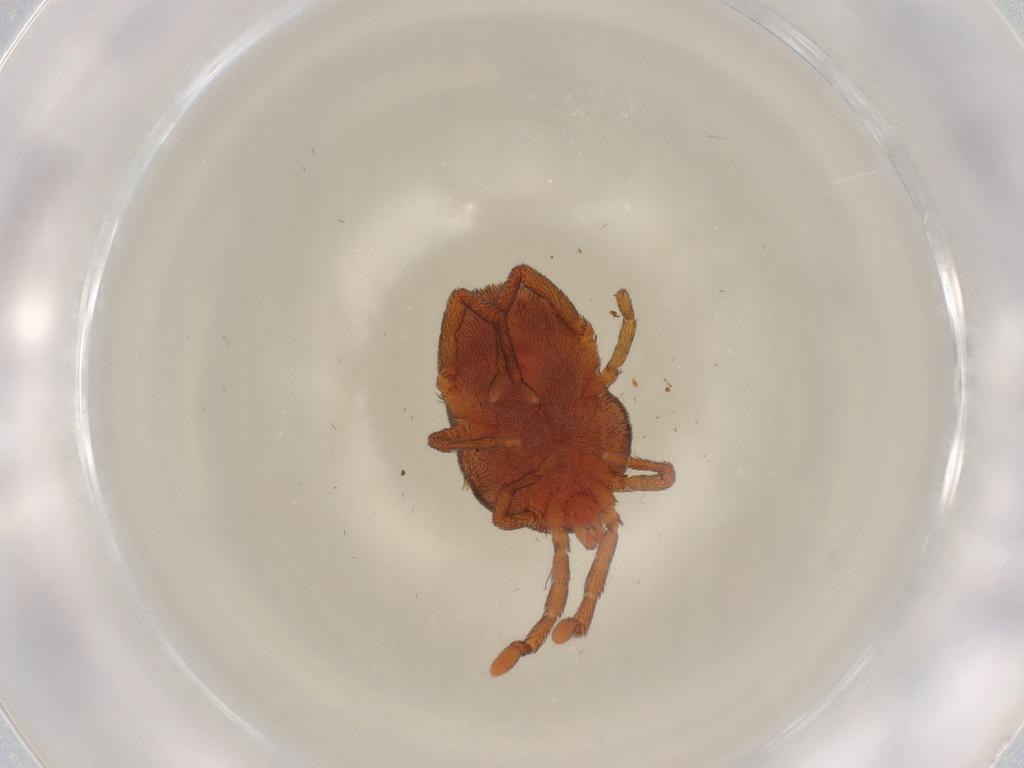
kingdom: Animalia
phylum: Arthropoda
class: Arachnida
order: Trombidiformes
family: Erythraeidae
